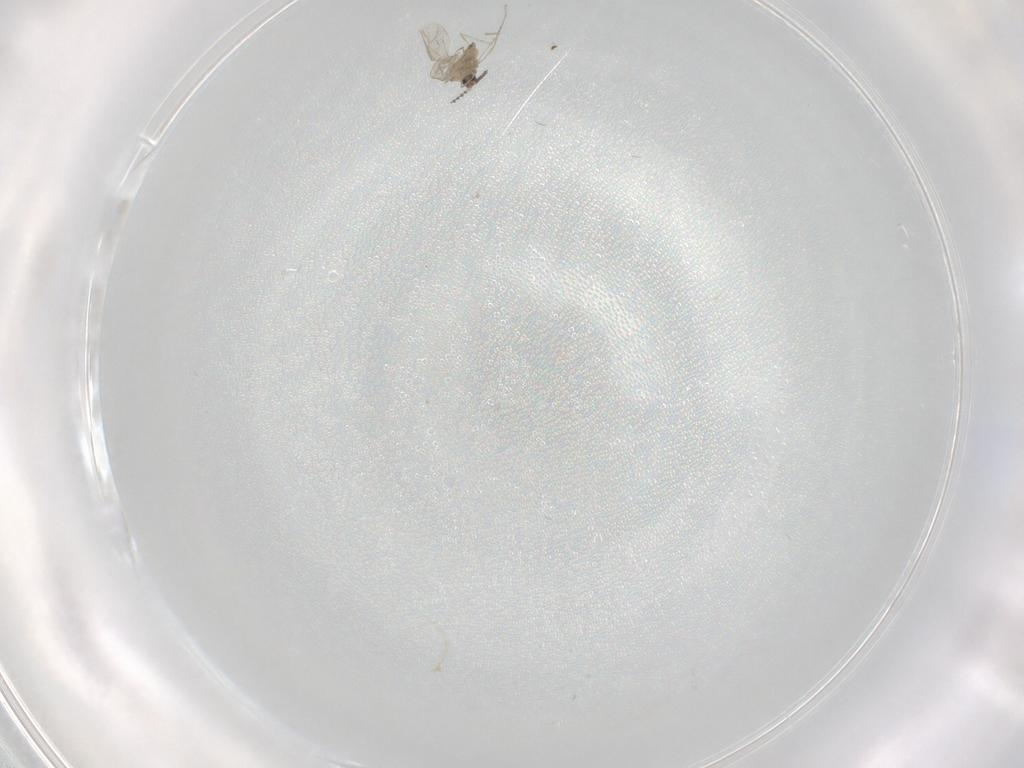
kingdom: Animalia
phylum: Arthropoda
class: Insecta
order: Diptera
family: Cecidomyiidae
